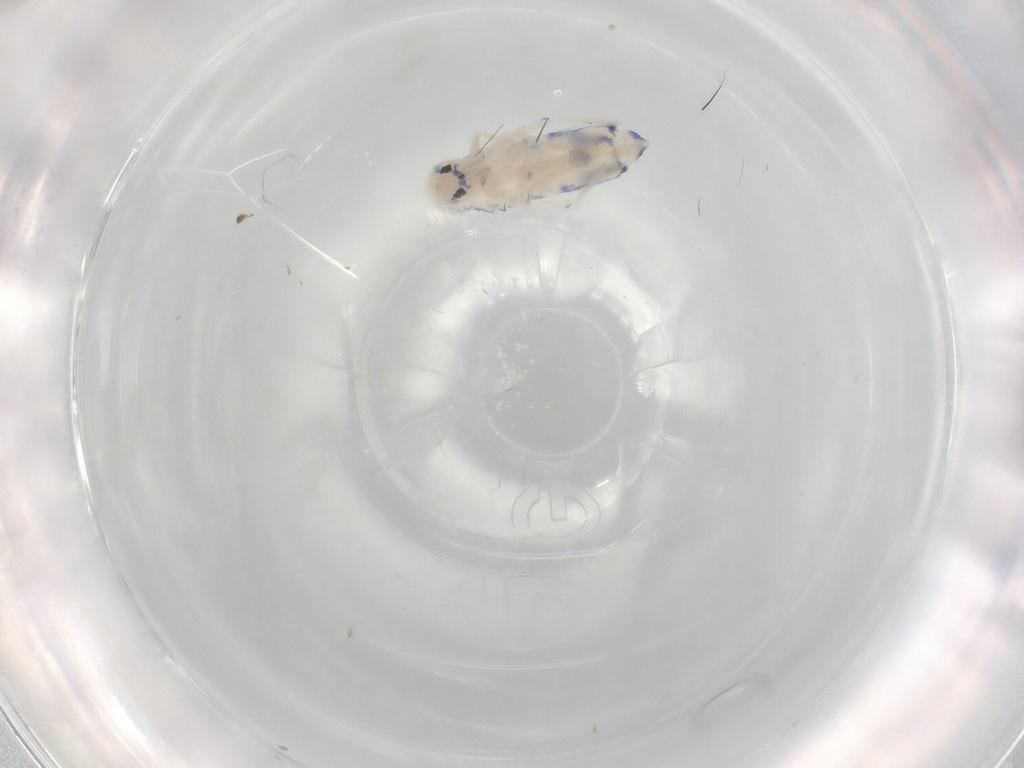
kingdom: Animalia
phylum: Arthropoda
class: Collembola
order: Entomobryomorpha
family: Entomobryidae
